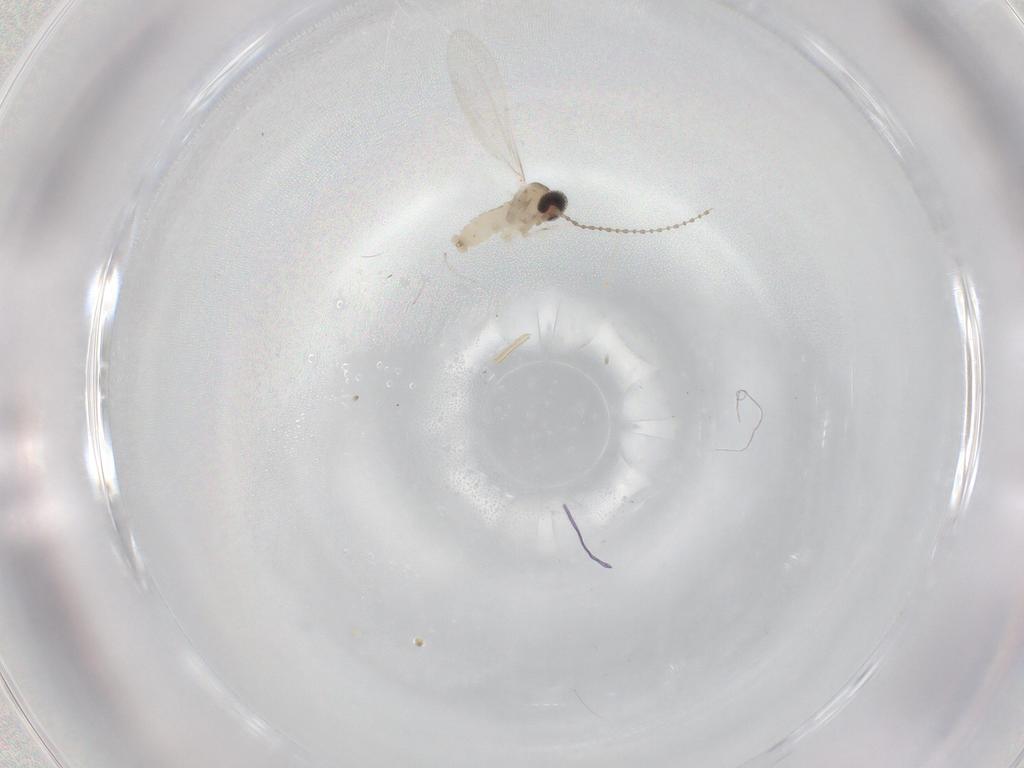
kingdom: Animalia
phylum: Arthropoda
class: Insecta
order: Diptera
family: Cecidomyiidae
